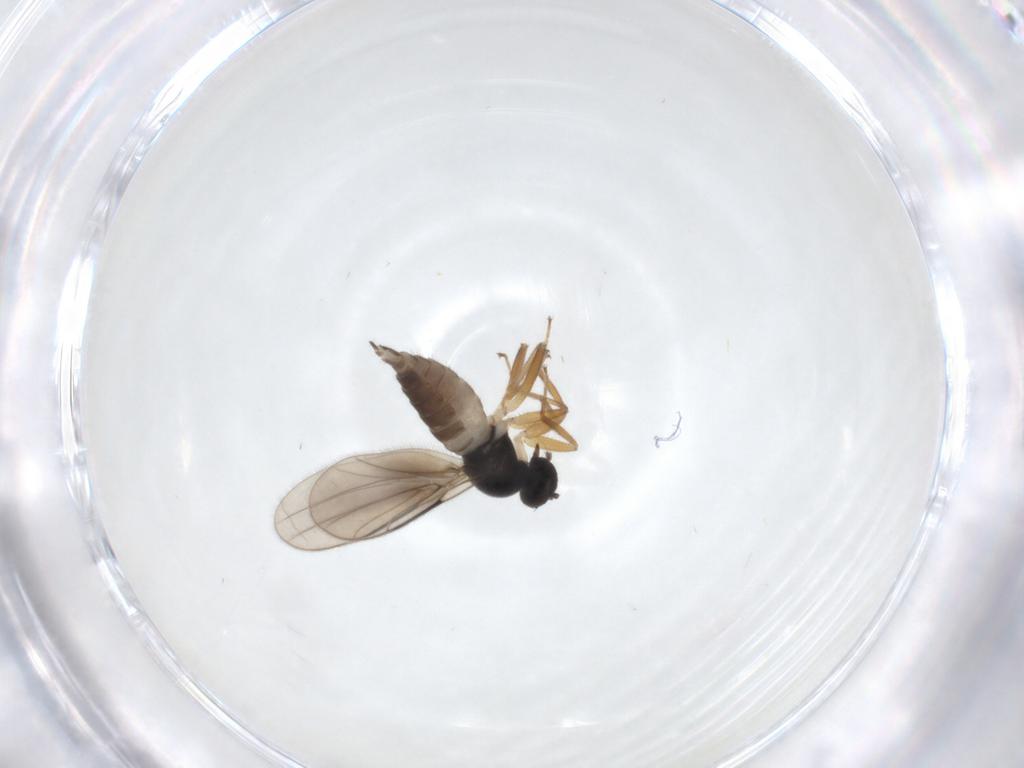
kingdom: Animalia
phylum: Arthropoda
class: Insecta
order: Diptera
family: Hybotidae
